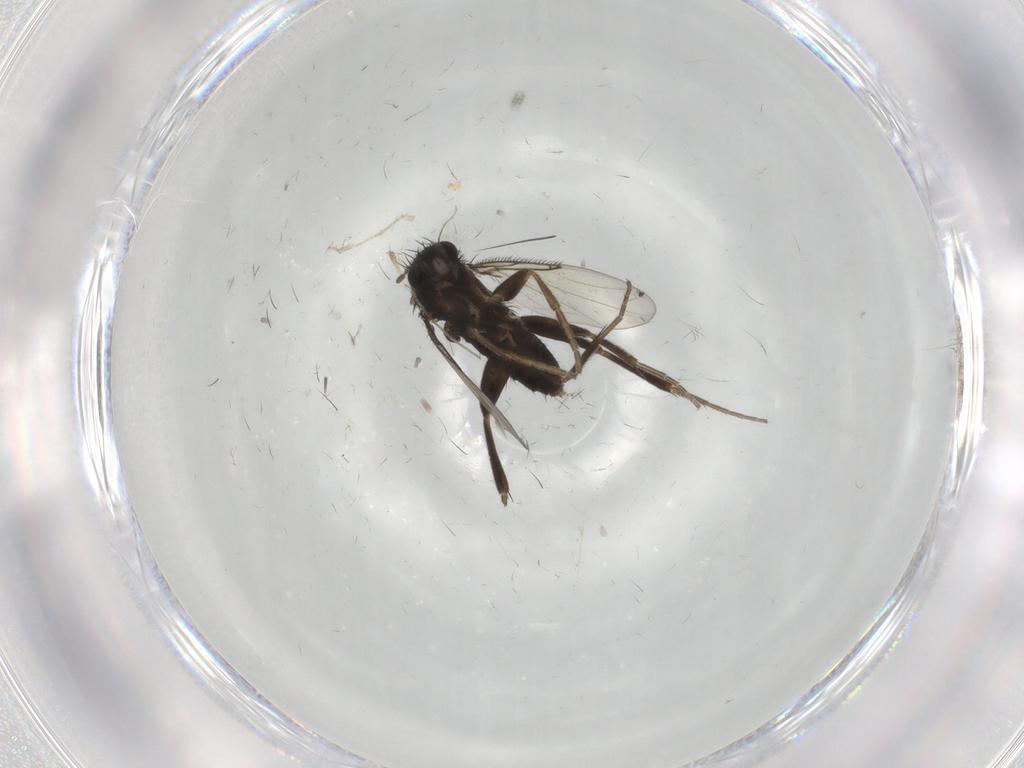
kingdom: Animalia
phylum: Arthropoda
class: Insecta
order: Diptera
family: Phoridae
